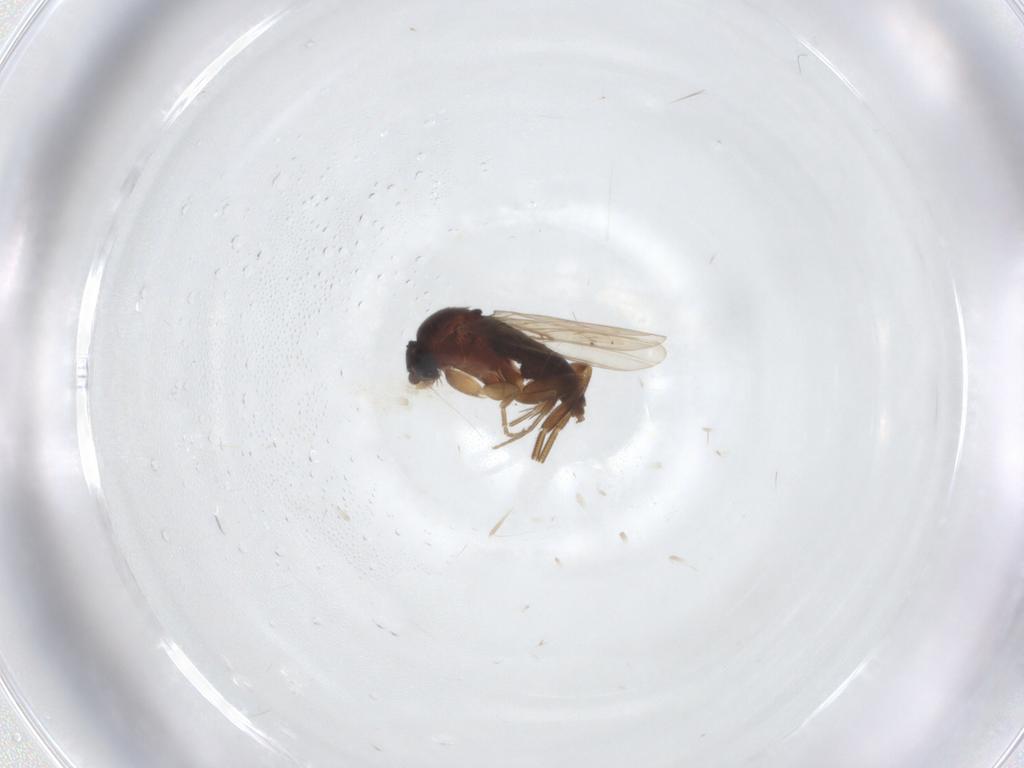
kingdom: Animalia
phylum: Arthropoda
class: Insecta
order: Diptera
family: Phoridae
